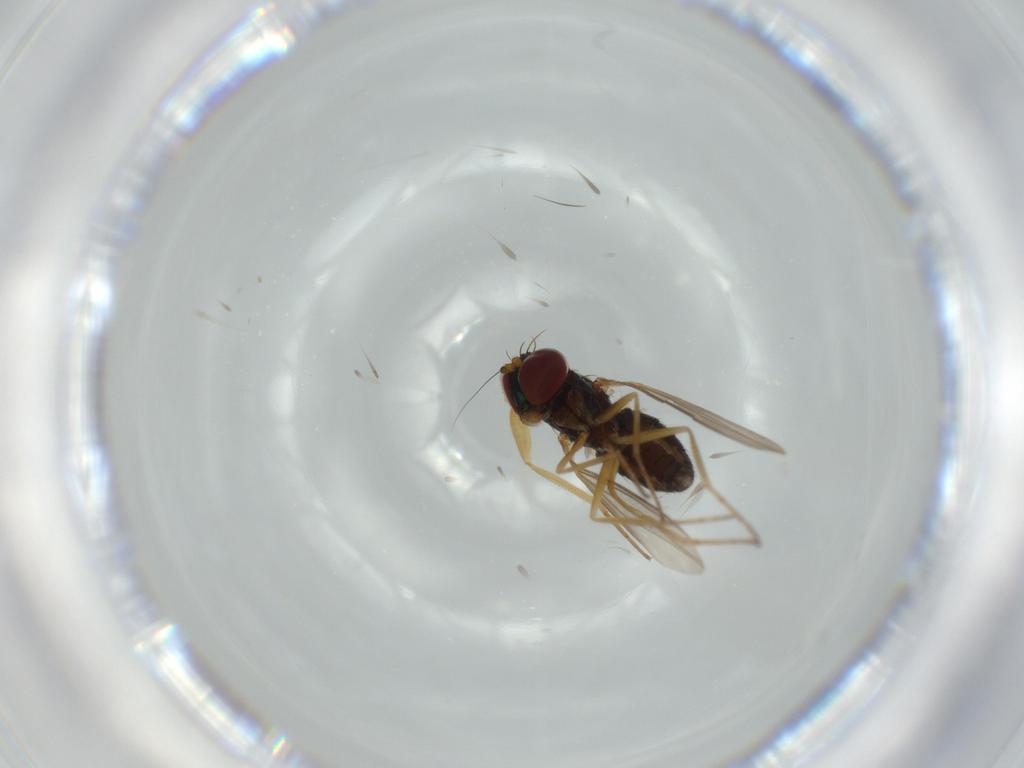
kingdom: Animalia
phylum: Arthropoda
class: Insecta
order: Diptera
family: Dolichopodidae
